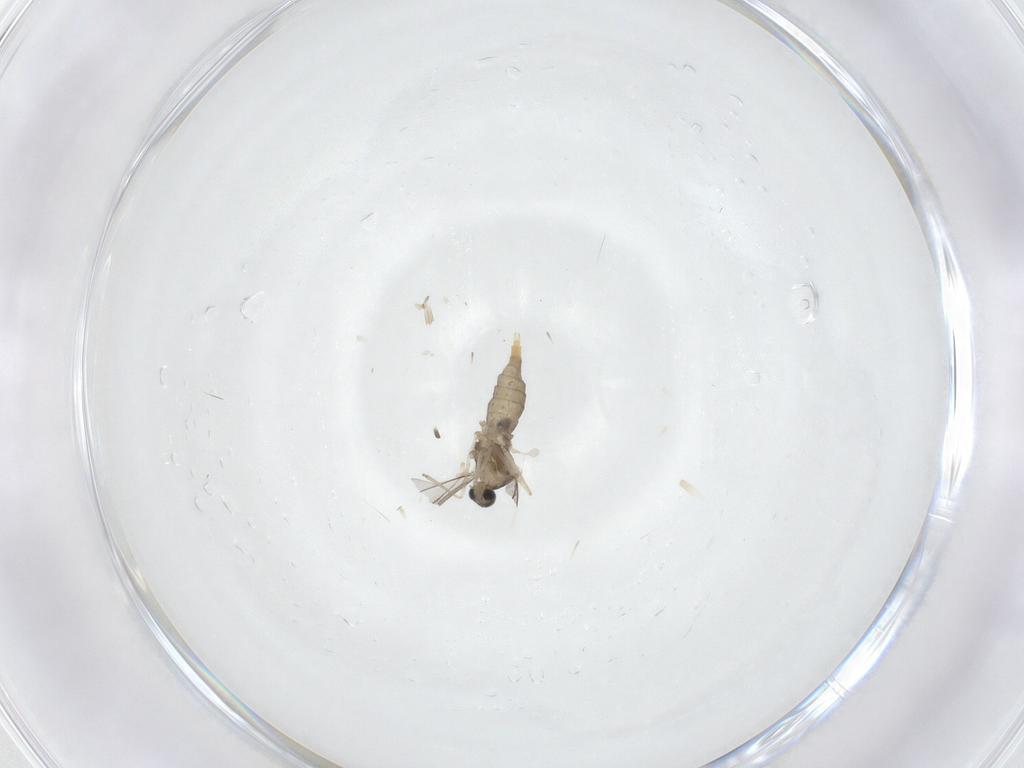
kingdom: Animalia
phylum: Arthropoda
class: Insecta
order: Diptera
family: Cecidomyiidae
